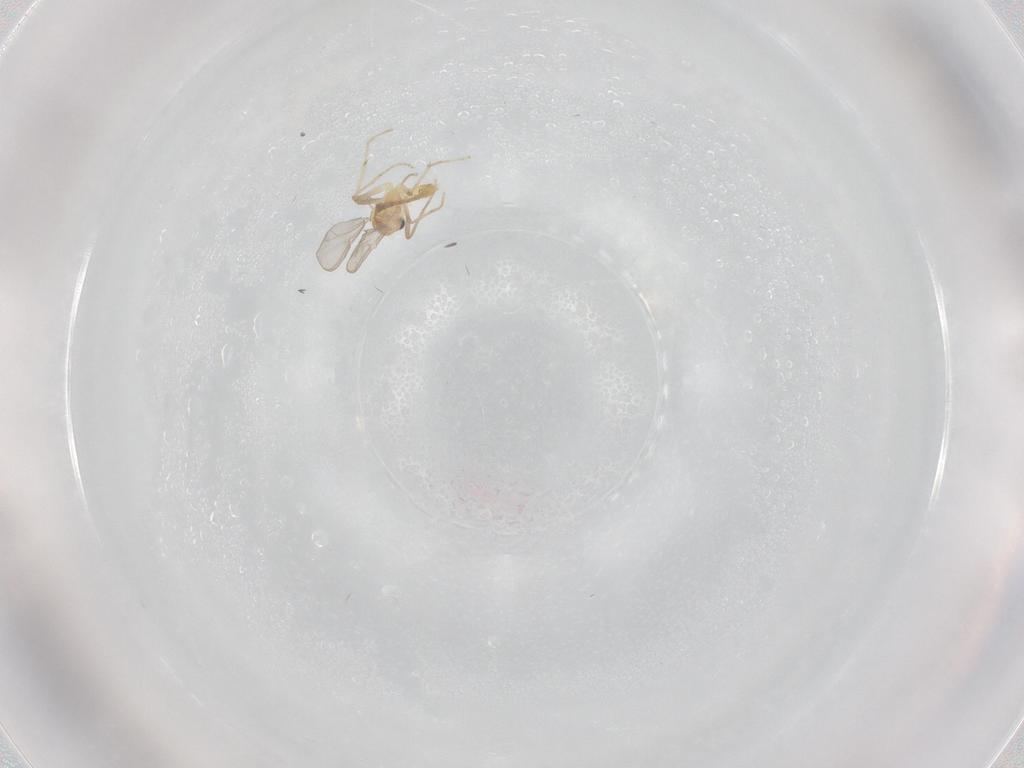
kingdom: Animalia
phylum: Arthropoda
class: Insecta
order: Diptera
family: Chironomidae
